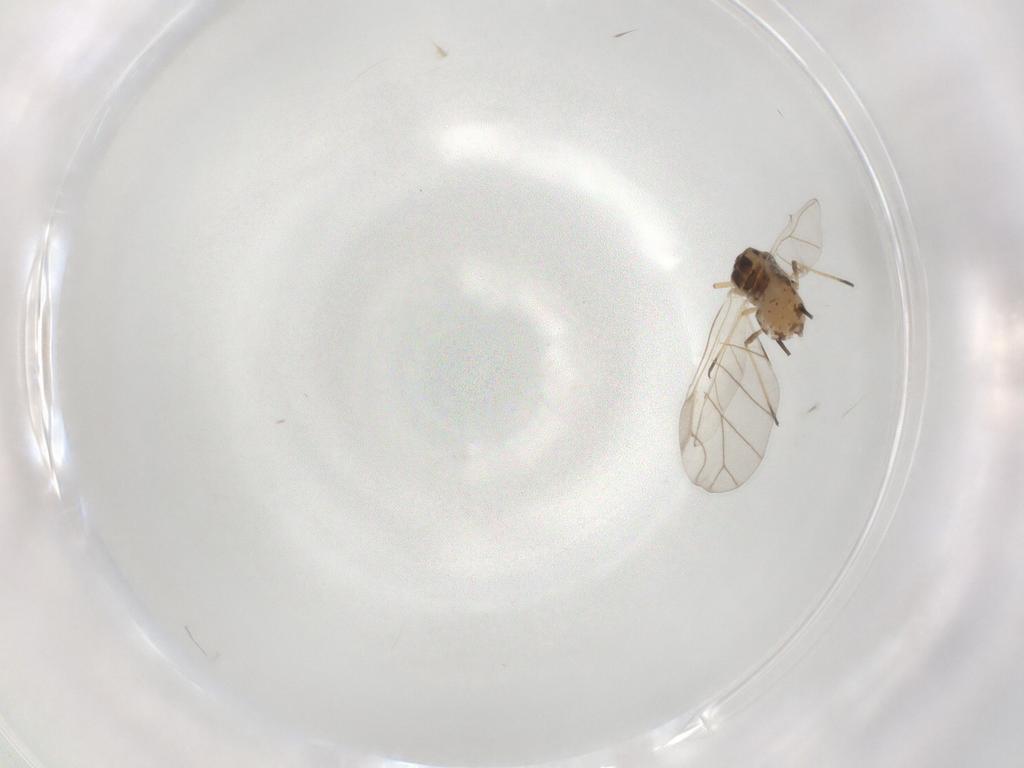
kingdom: Animalia
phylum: Arthropoda
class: Insecta
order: Hemiptera
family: Aphididae
